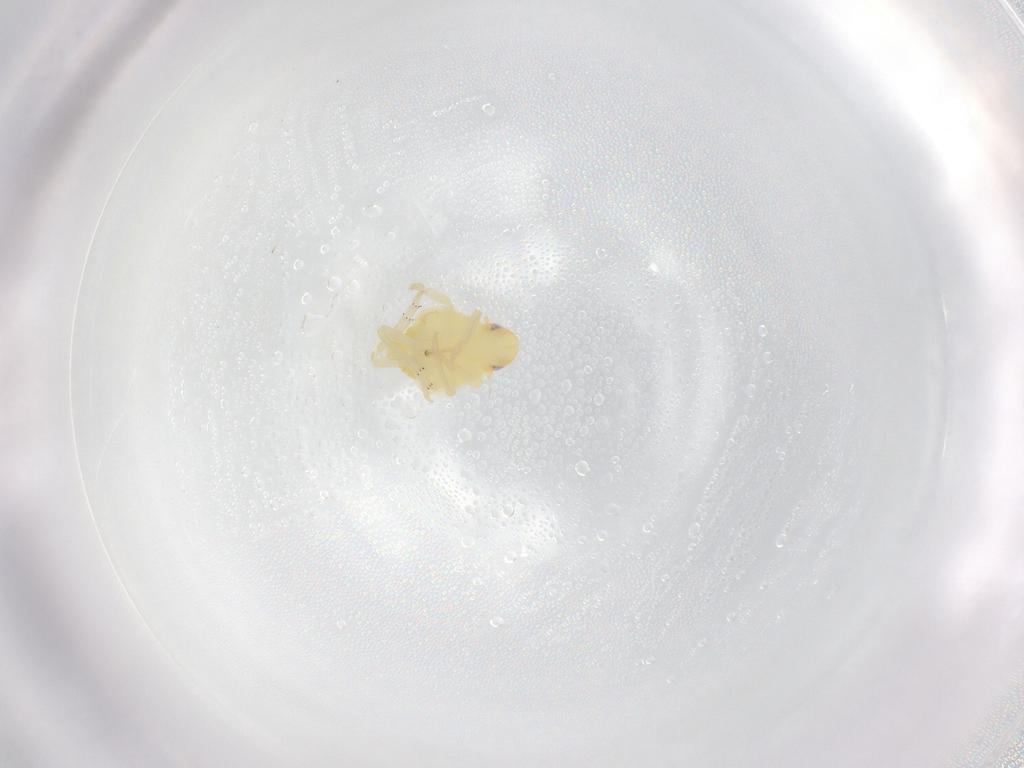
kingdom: Animalia
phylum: Arthropoda
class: Insecta
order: Hemiptera
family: Tropiduchidae
